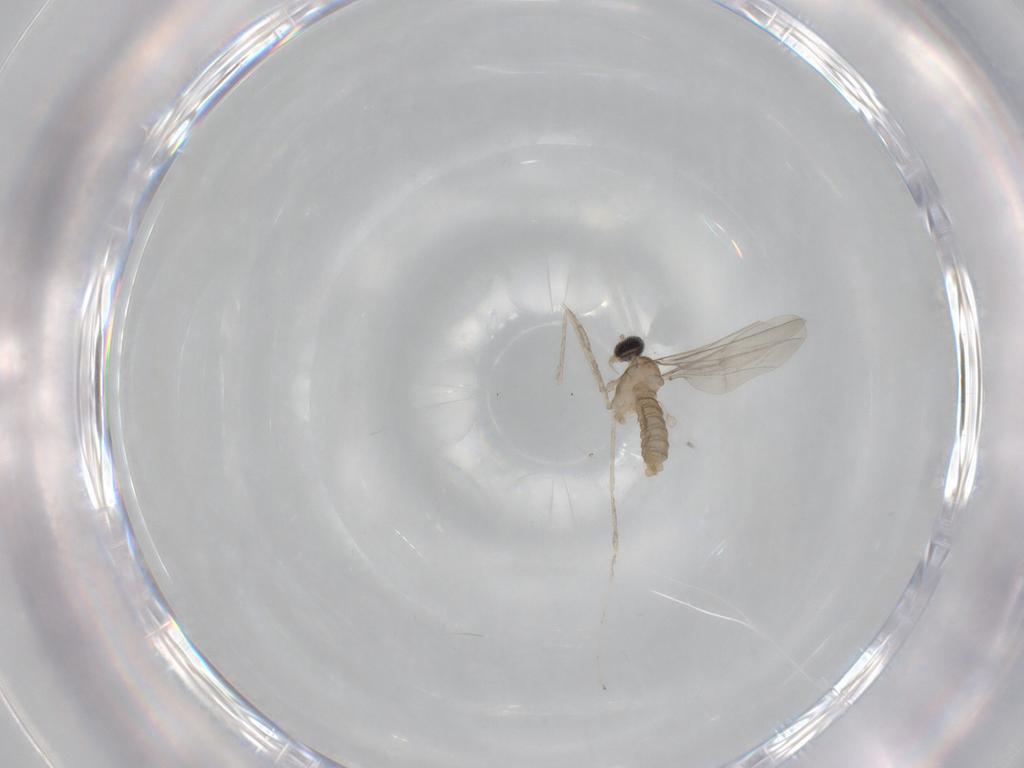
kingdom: Animalia
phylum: Arthropoda
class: Insecta
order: Diptera
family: Cecidomyiidae
